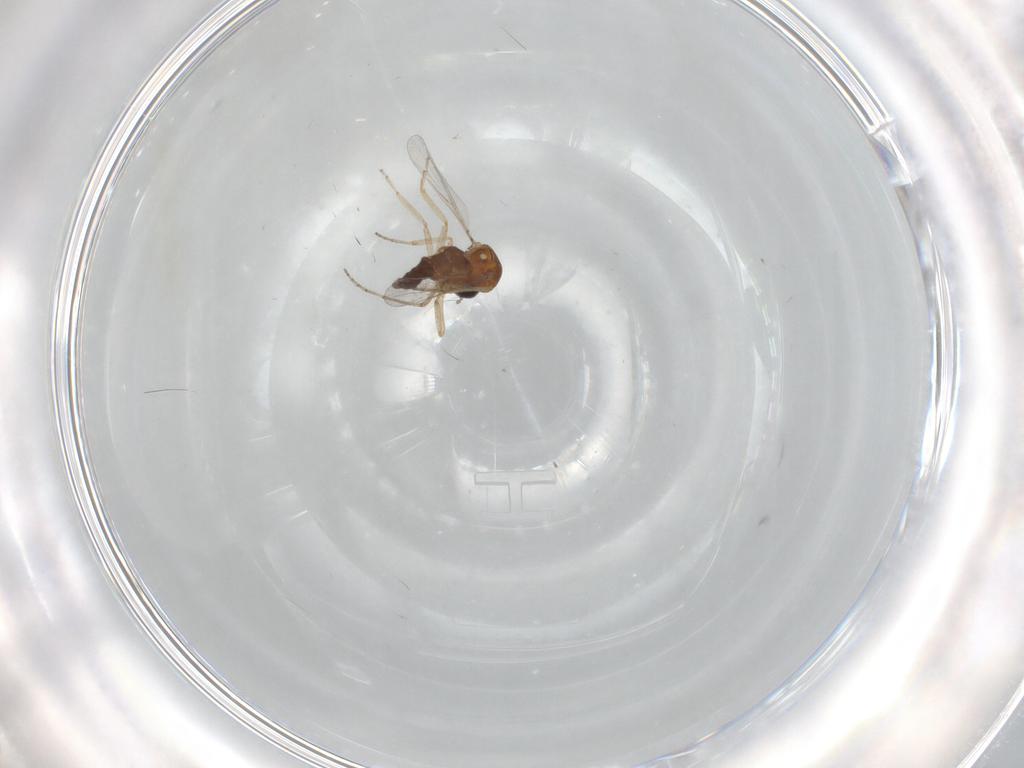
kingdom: Animalia
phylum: Arthropoda
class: Insecta
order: Diptera
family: Ceratopogonidae
